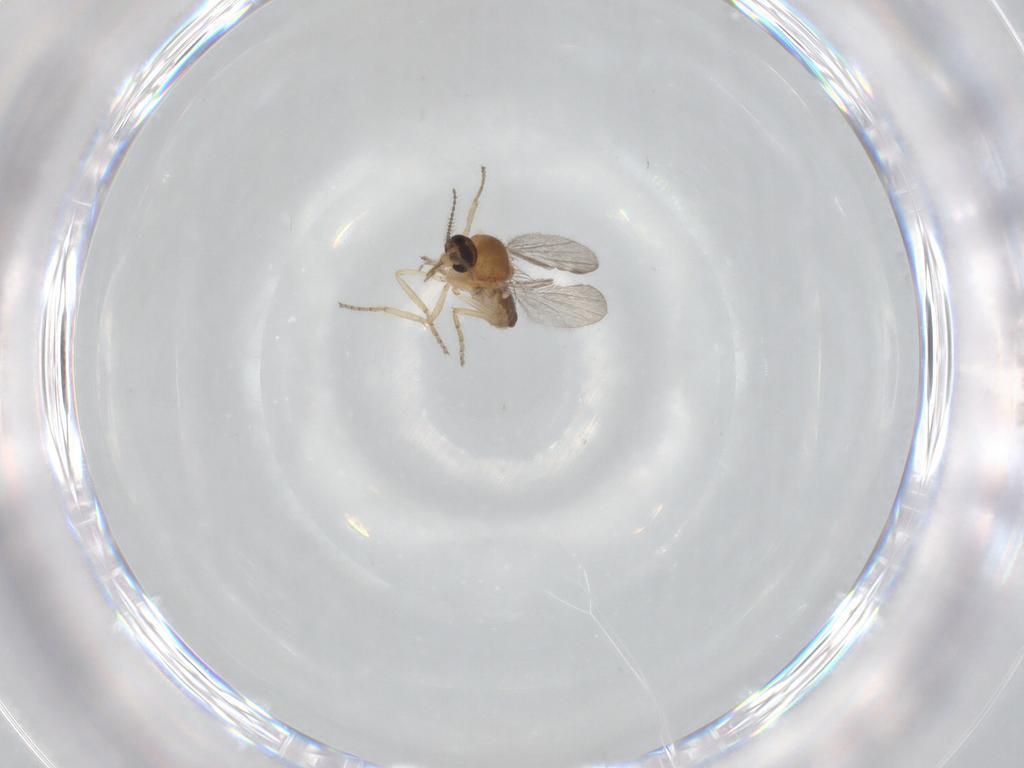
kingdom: Animalia
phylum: Arthropoda
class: Insecta
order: Diptera
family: Ceratopogonidae
